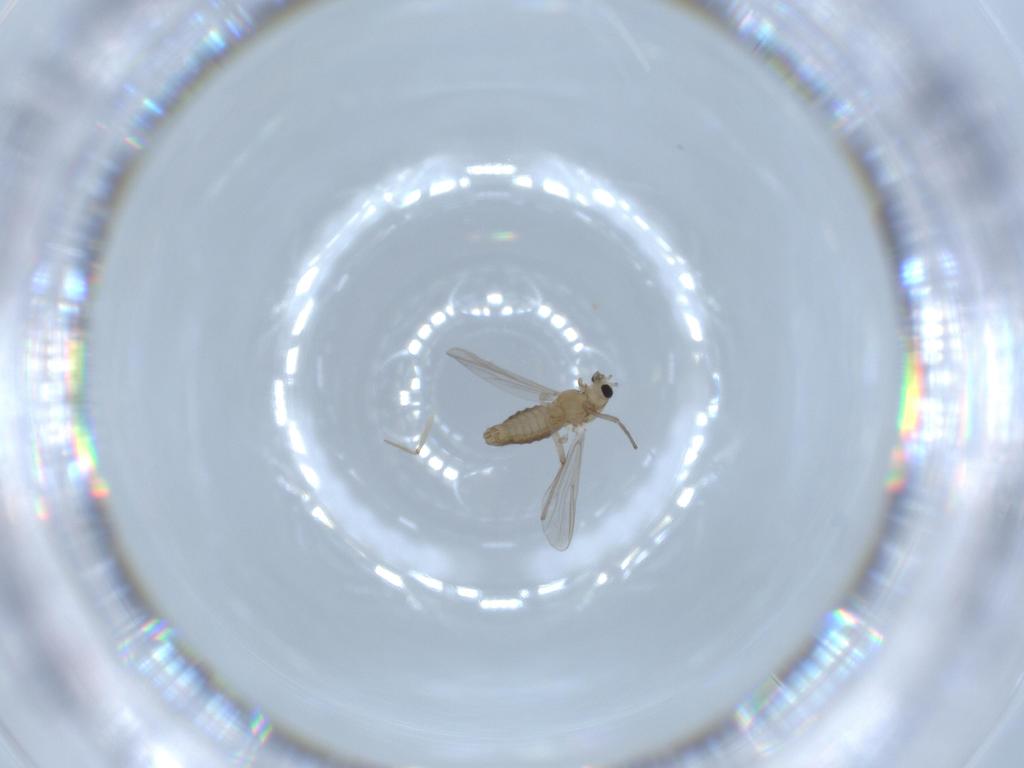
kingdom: Animalia
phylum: Arthropoda
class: Insecta
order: Diptera
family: Chironomidae
